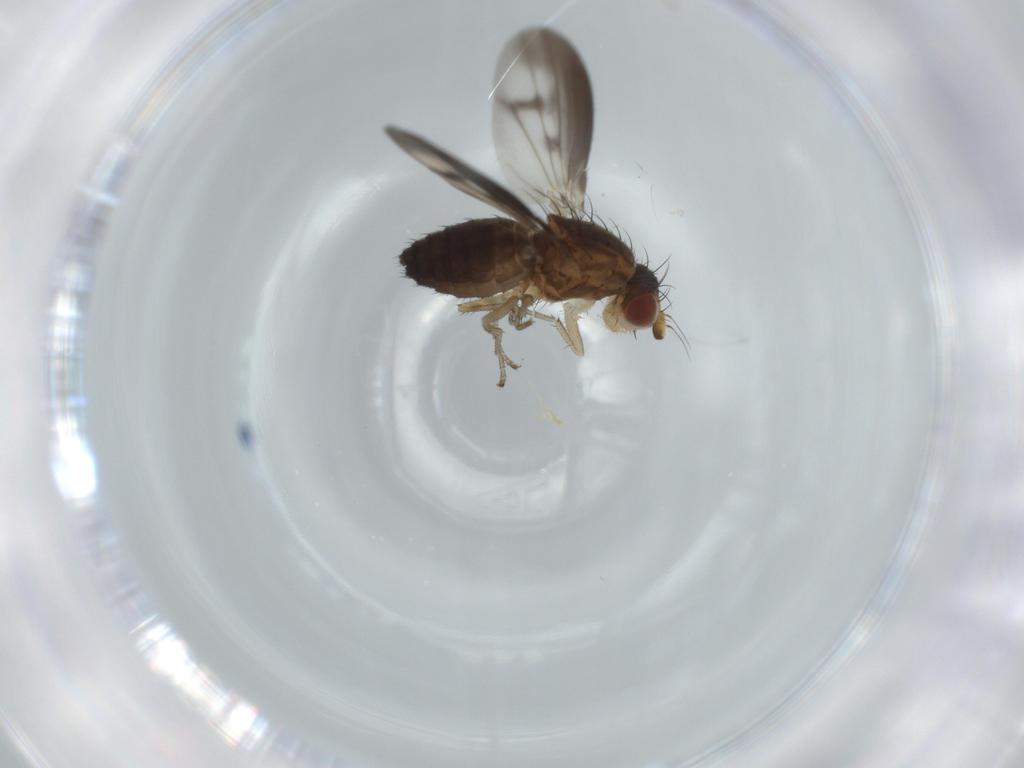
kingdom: Animalia
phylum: Arthropoda
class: Insecta
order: Diptera
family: Heleomyzidae
